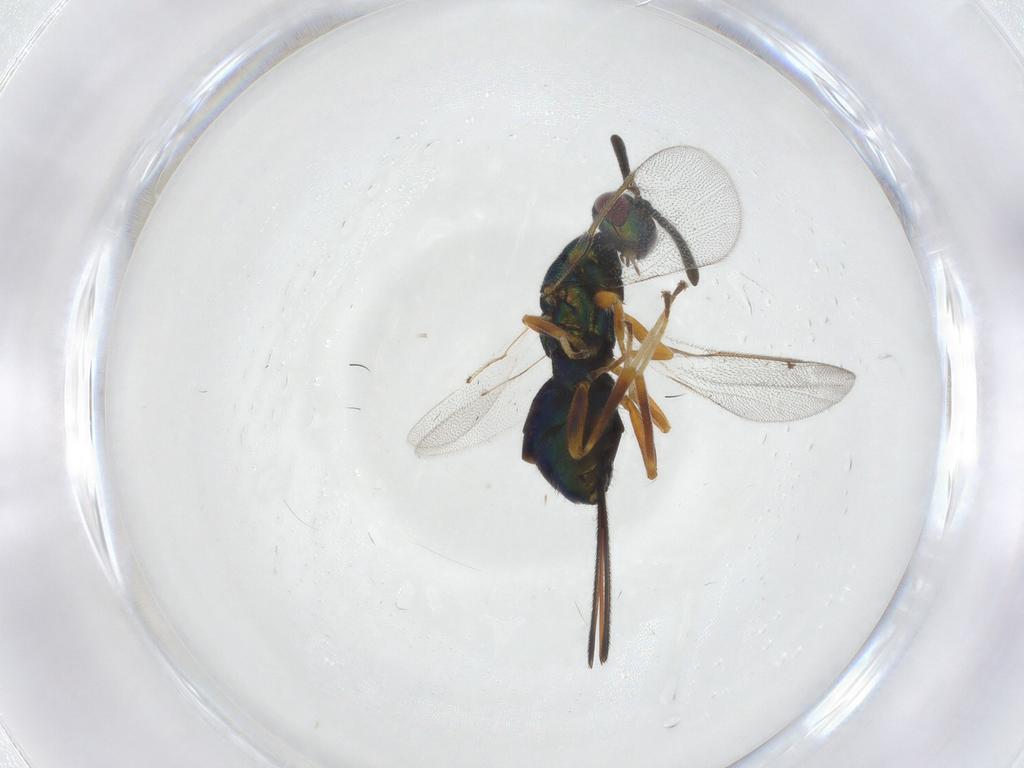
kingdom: Animalia
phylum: Arthropoda
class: Insecta
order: Hymenoptera
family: Torymidae
